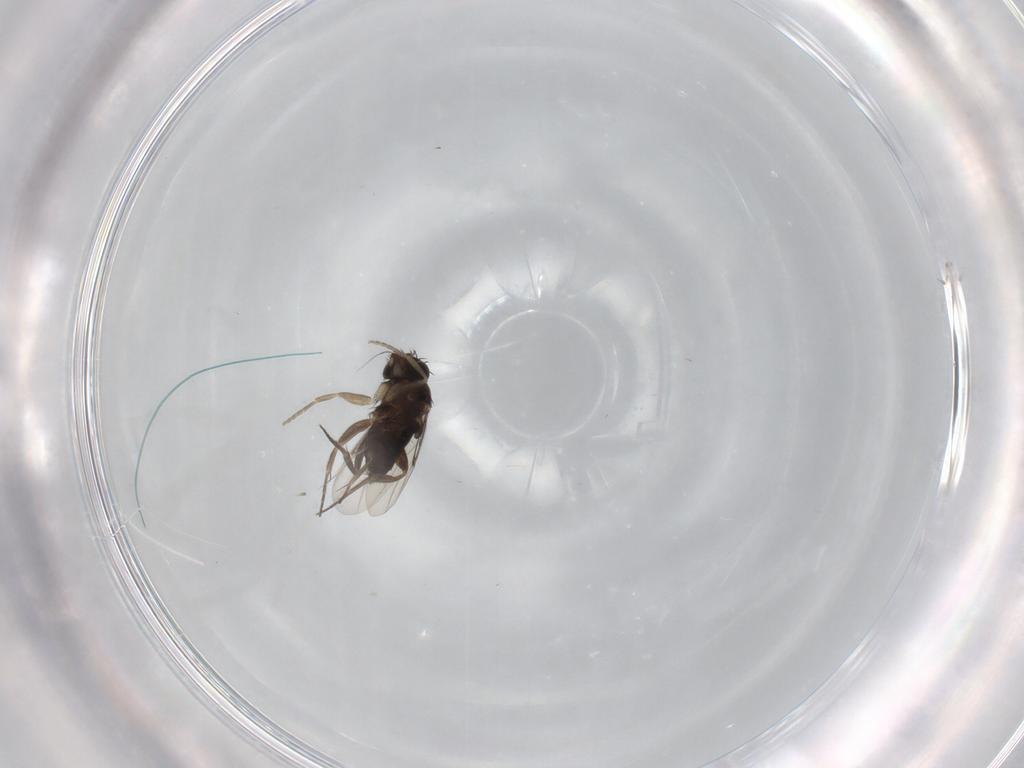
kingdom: Animalia
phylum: Arthropoda
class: Insecta
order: Diptera
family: Phoridae
